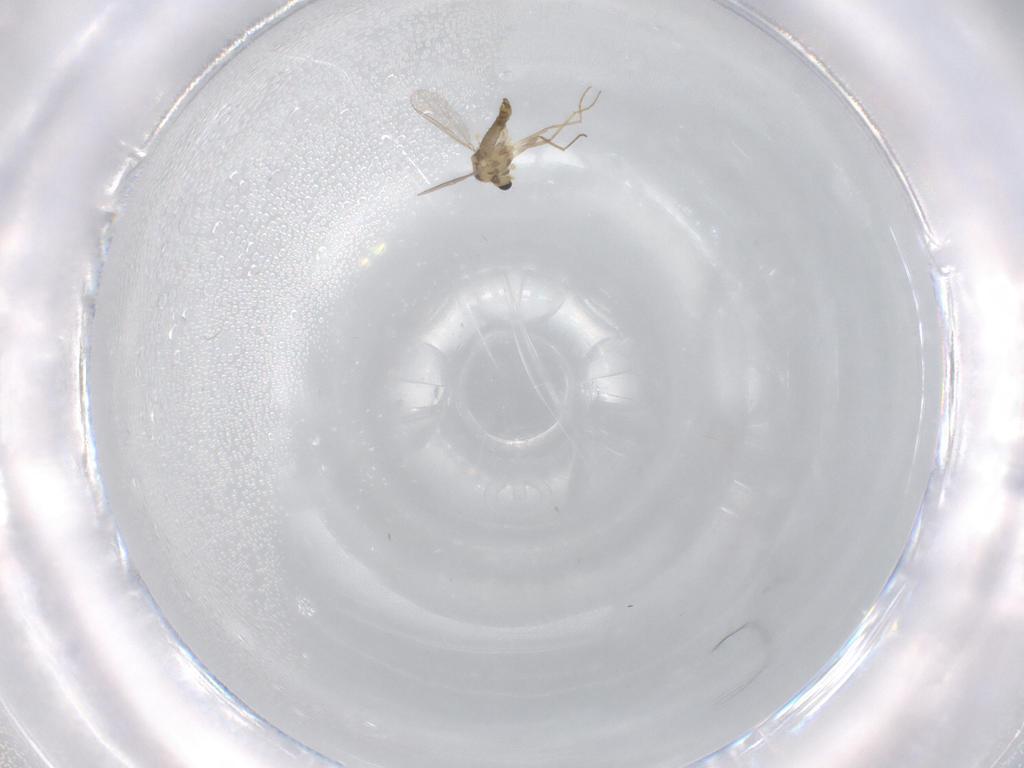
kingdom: Animalia
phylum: Arthropoda
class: Insecta
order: Diptera
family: Chironomidae
